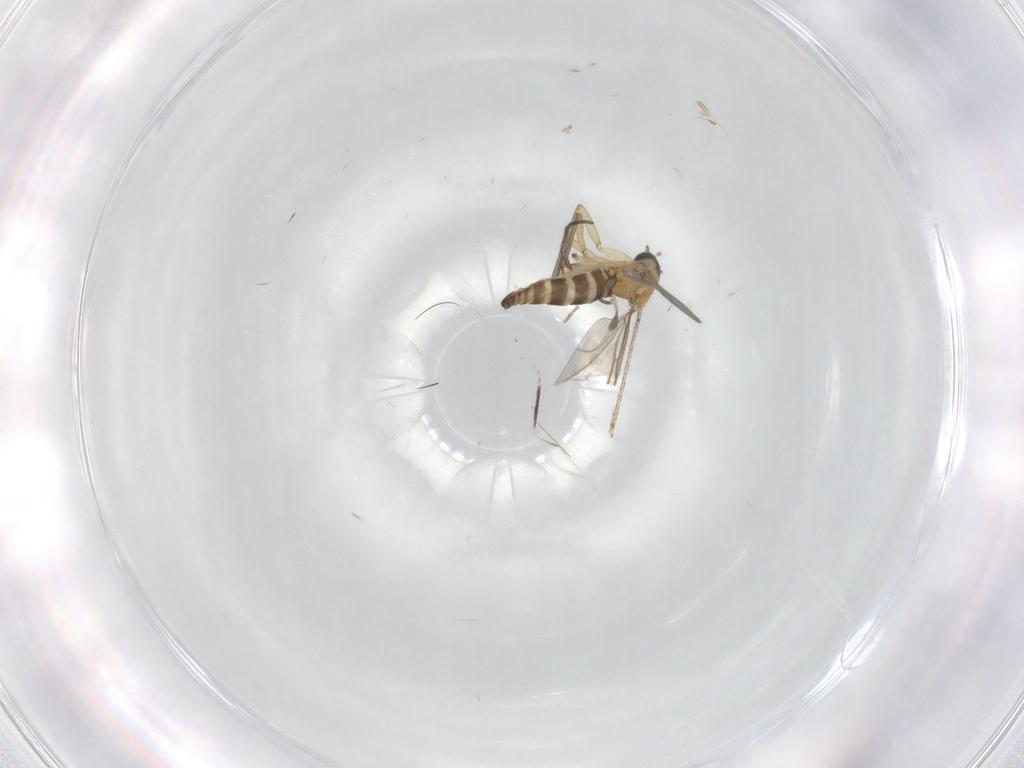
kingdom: Animalia
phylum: Arthropoda
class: Insecta
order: Diptera
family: Cecidomyiidae
